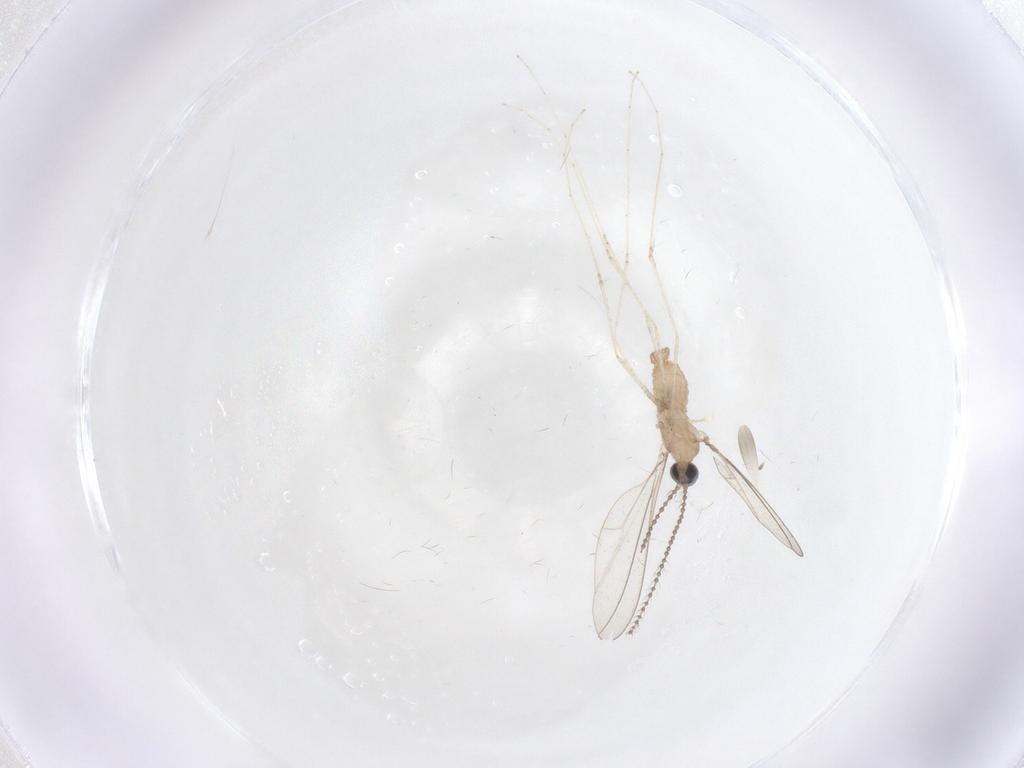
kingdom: Animalia
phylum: Arthropoda
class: Insecta
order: Diptera
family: Cecidomyiidae
